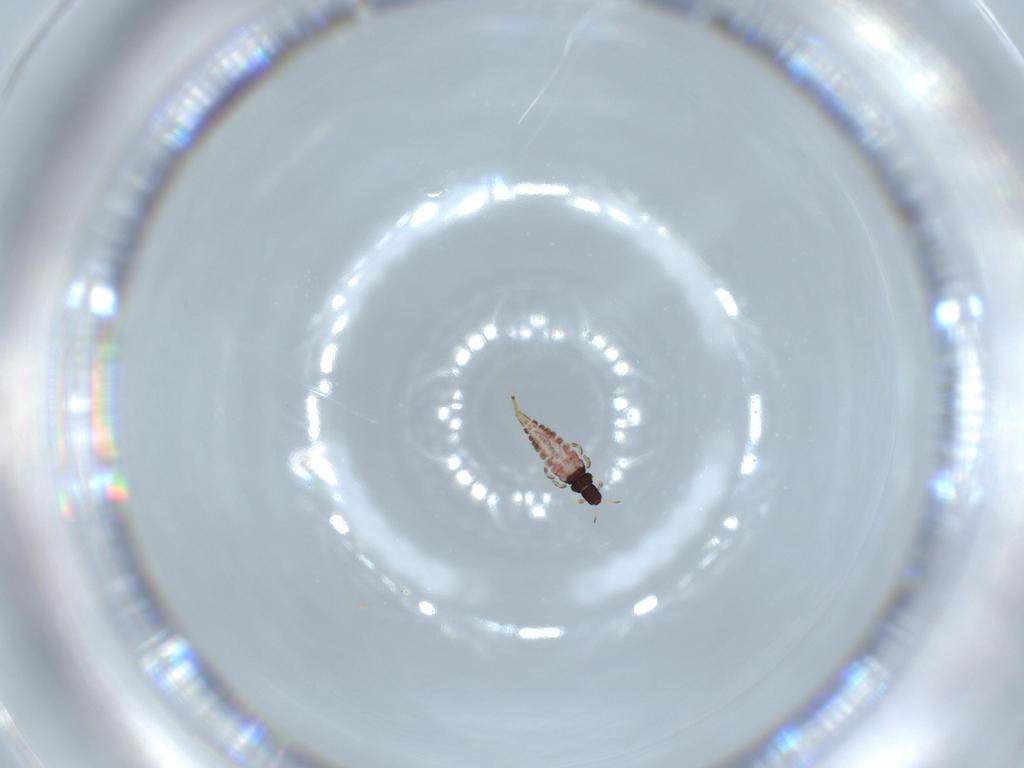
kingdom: Animalia
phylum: Arthropoda
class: Insecta
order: Thysanoptera
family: Phlaeothripidae
